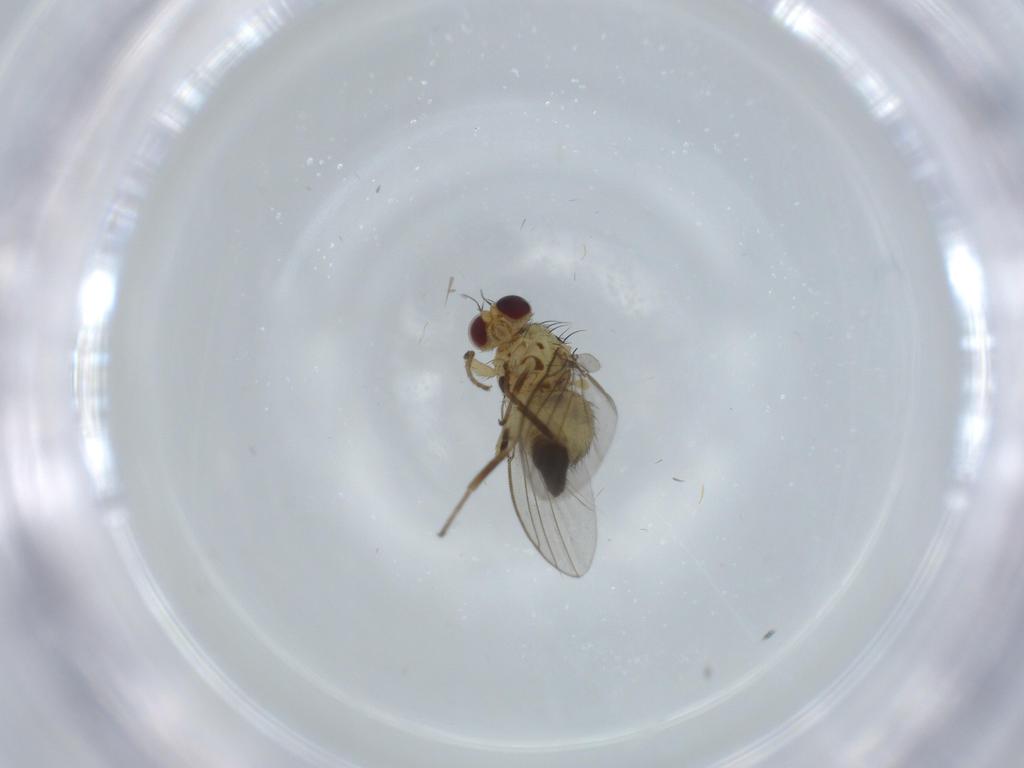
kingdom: Animalia
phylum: Arthropoda
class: Insecta
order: Diptera
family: Agromyzidae
